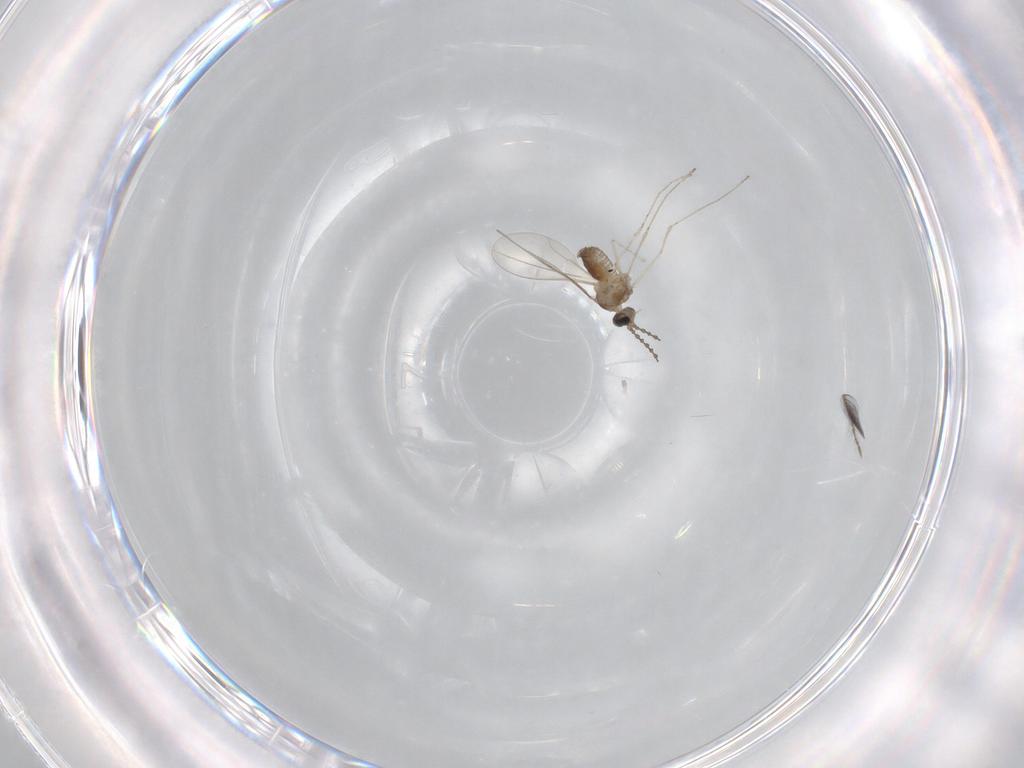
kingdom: Animalia
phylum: Arthropoda
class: Insecta
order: Diptera
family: Cecidomyiidae
